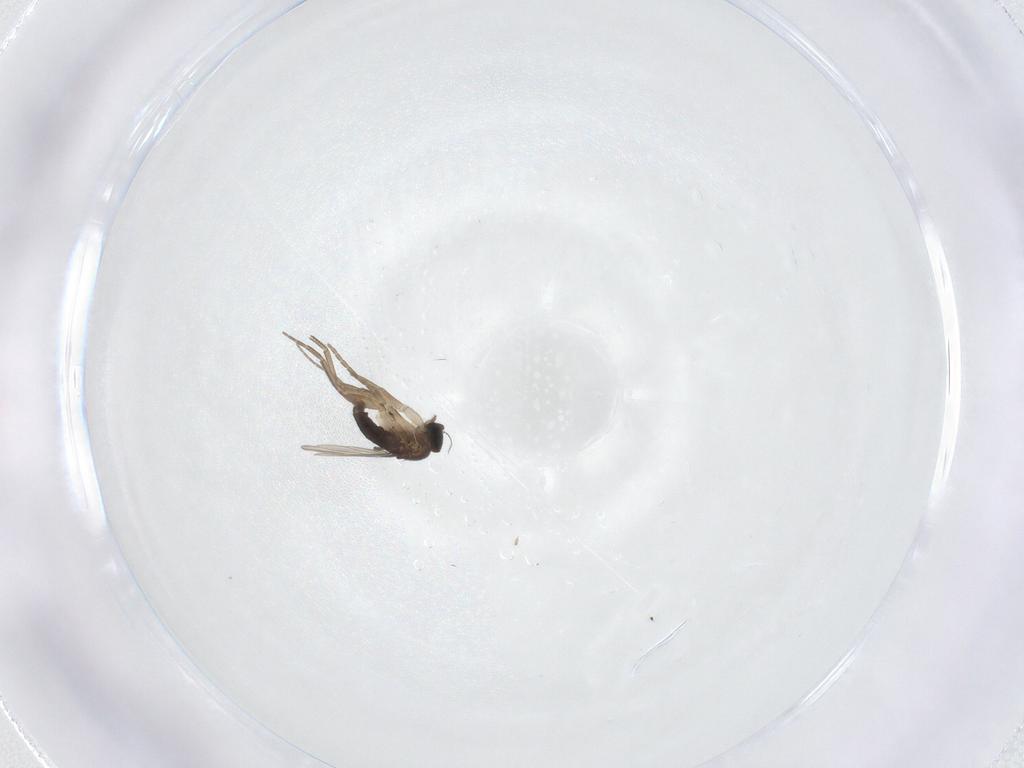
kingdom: Animalia
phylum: Arthropoda
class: Insecta
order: Diptera
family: Phoridae
